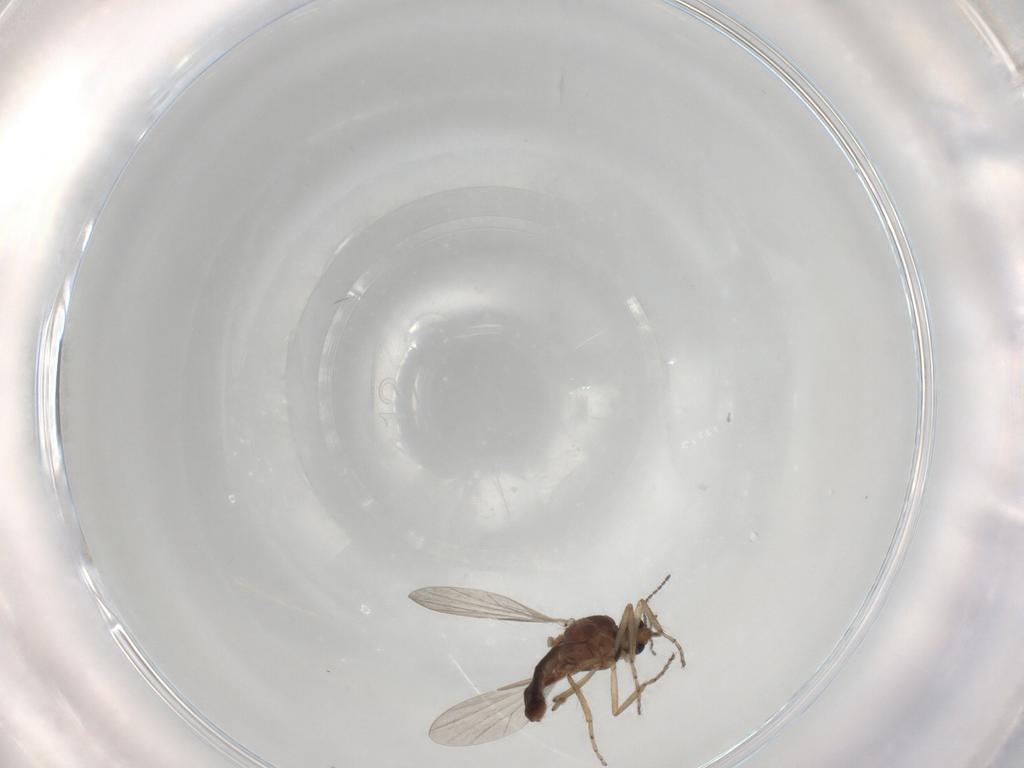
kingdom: Animalia
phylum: Arthropoda
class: Insecta
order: Diptera
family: Ceratopogonidae
